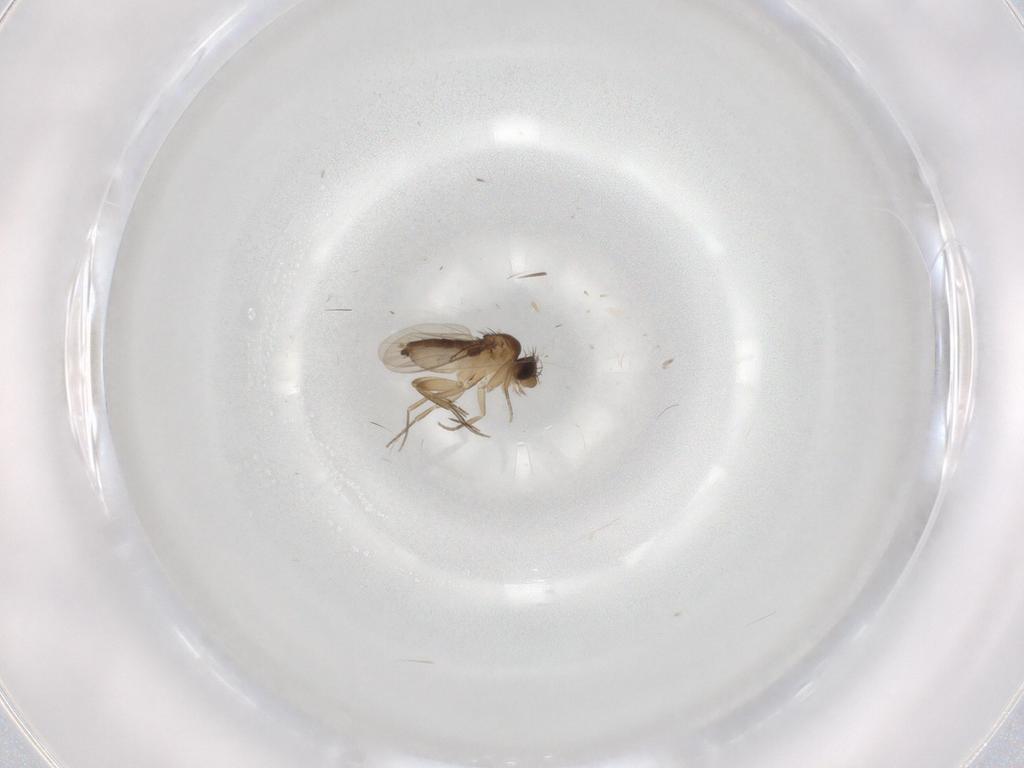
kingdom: Animalia
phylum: Arthropoda
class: Insecta
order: Diptera
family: Phoridae
